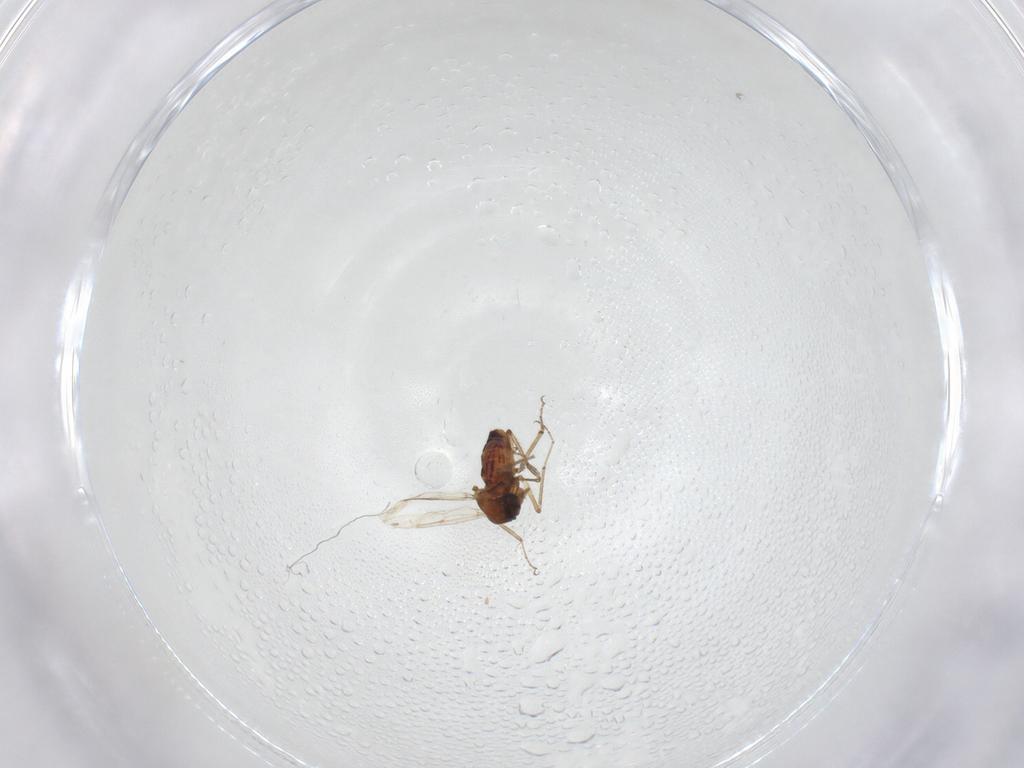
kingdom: Animalia
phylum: Arthropoda
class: Insecta
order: Diptera
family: Ceratopogonidae
